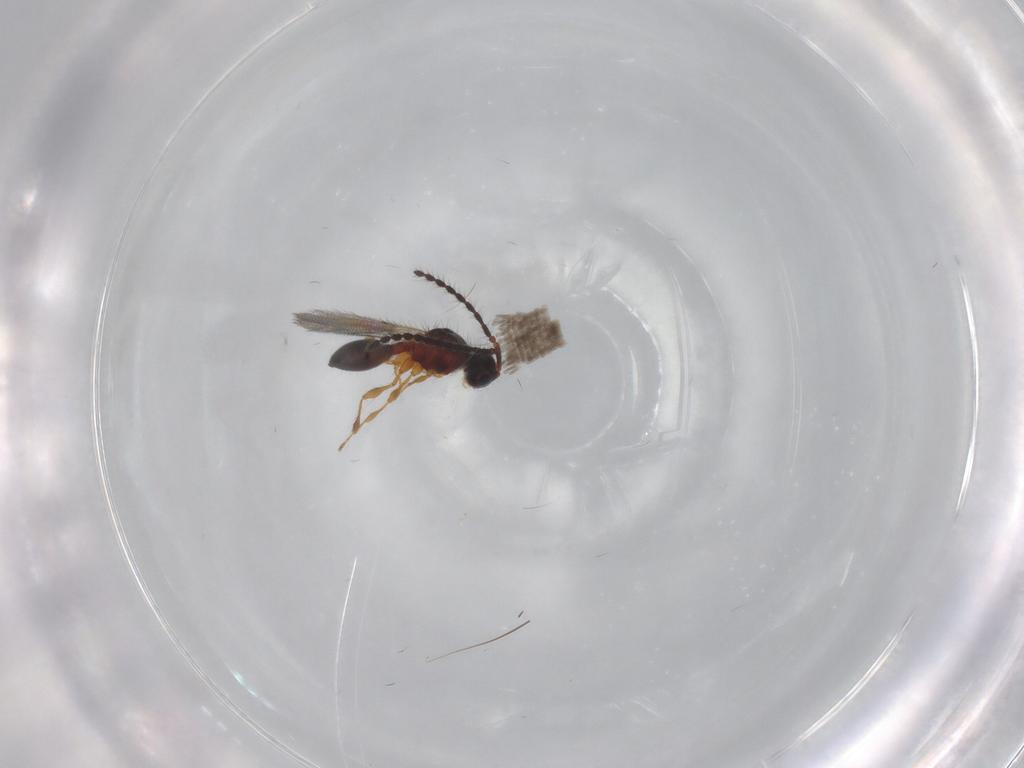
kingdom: Animalia
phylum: Arthropoda
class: Insecta
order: Hymenoptera
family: Diapriidae
